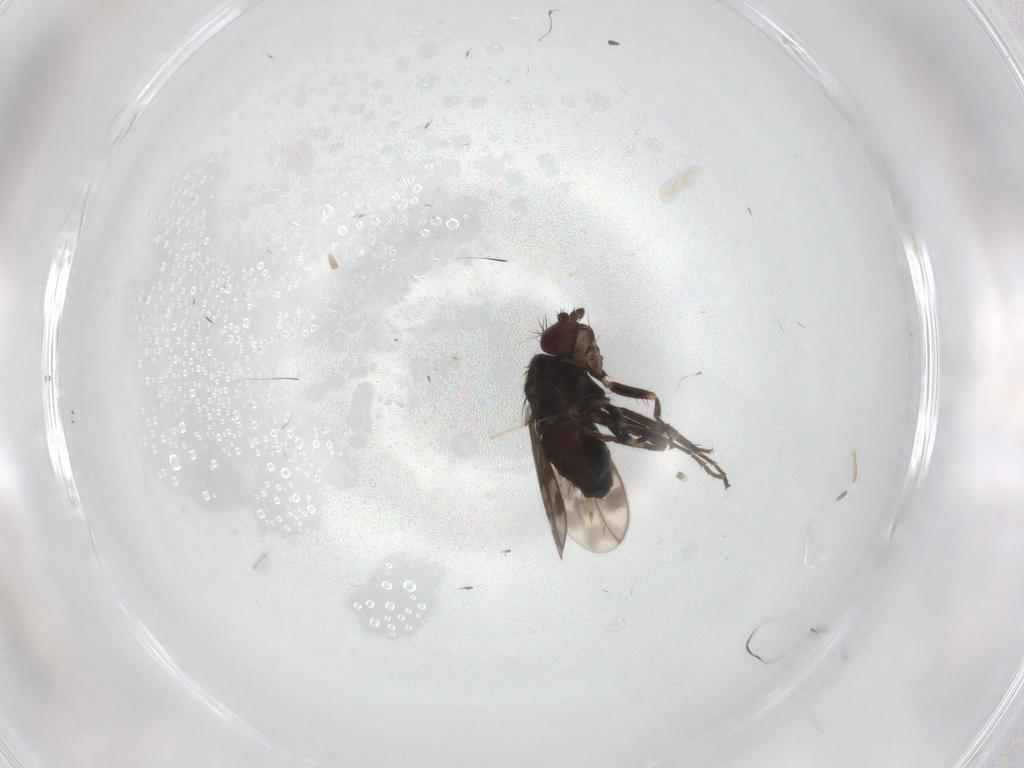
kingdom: Animalia
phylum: Arthropoda
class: Insecta
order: Diptera
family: Sphaeroceridae
